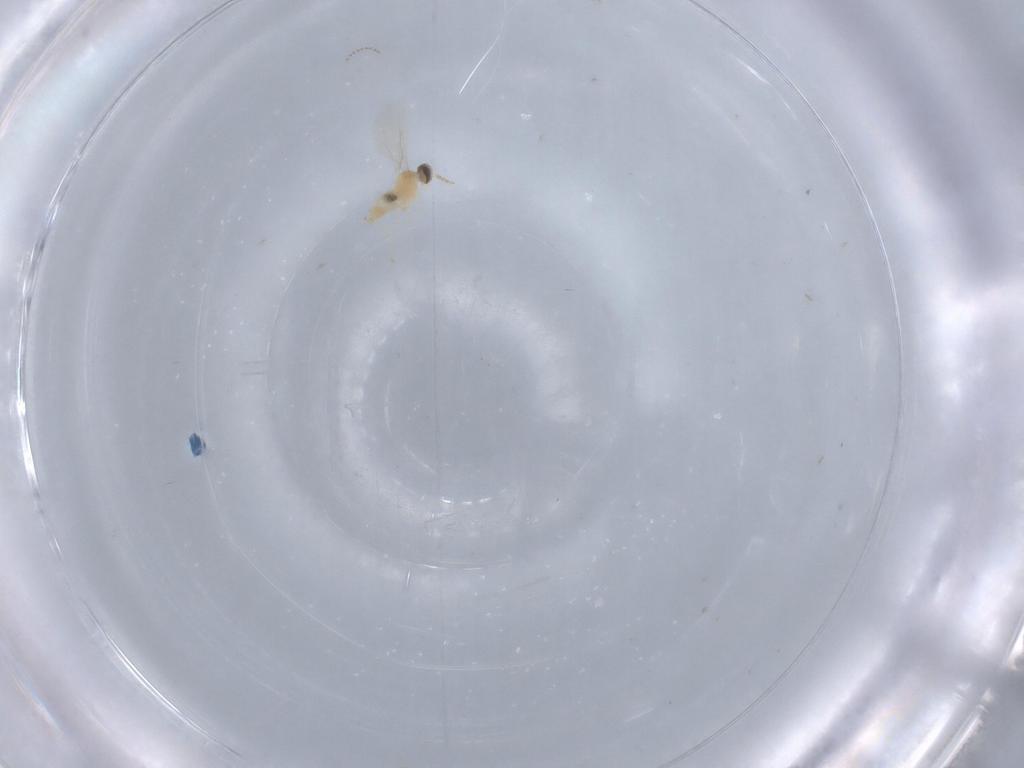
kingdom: Animalia
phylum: Arthropoda
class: Insecta
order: Diptera
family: Cecidomyiidae
